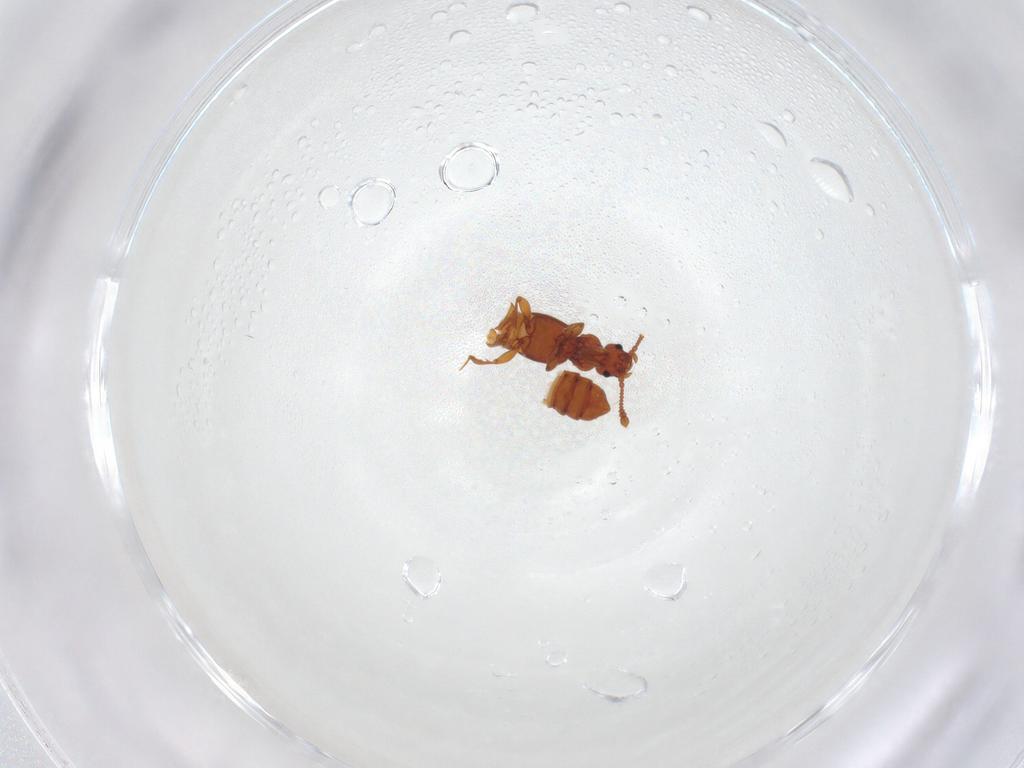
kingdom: Animalia
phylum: Arthropoda
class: Insecta
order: Coleoptera
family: Staphylinidae
